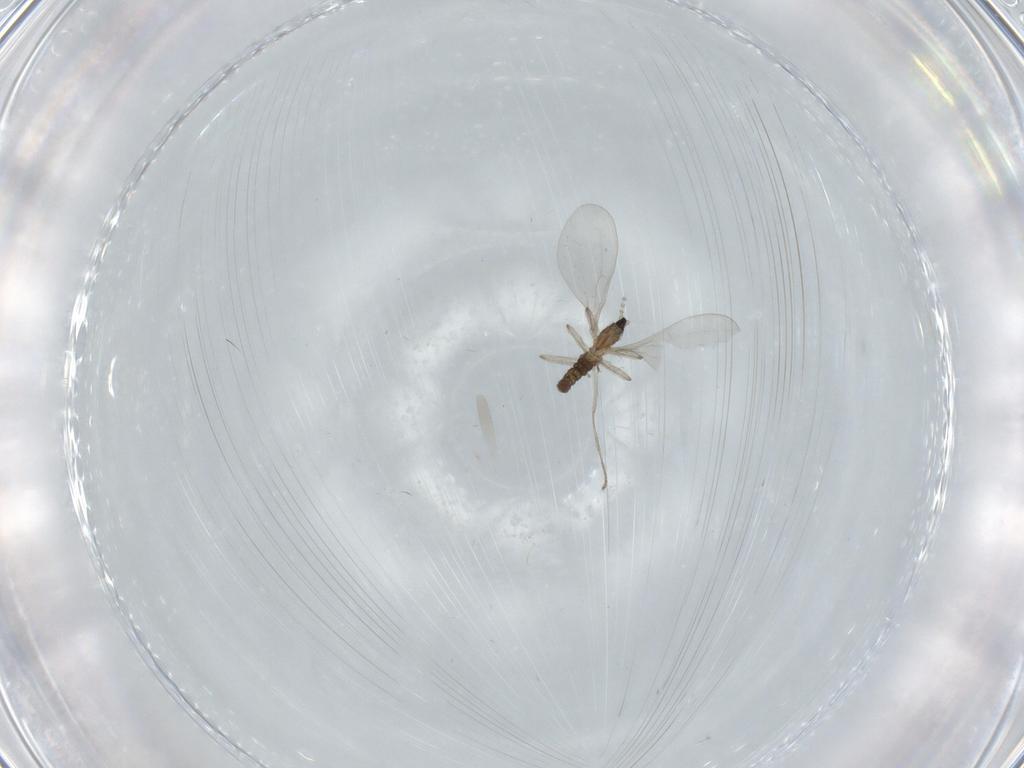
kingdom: Animalia
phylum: Arthropoda
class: Insecta
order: Diptera
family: Cecidomyiidae
